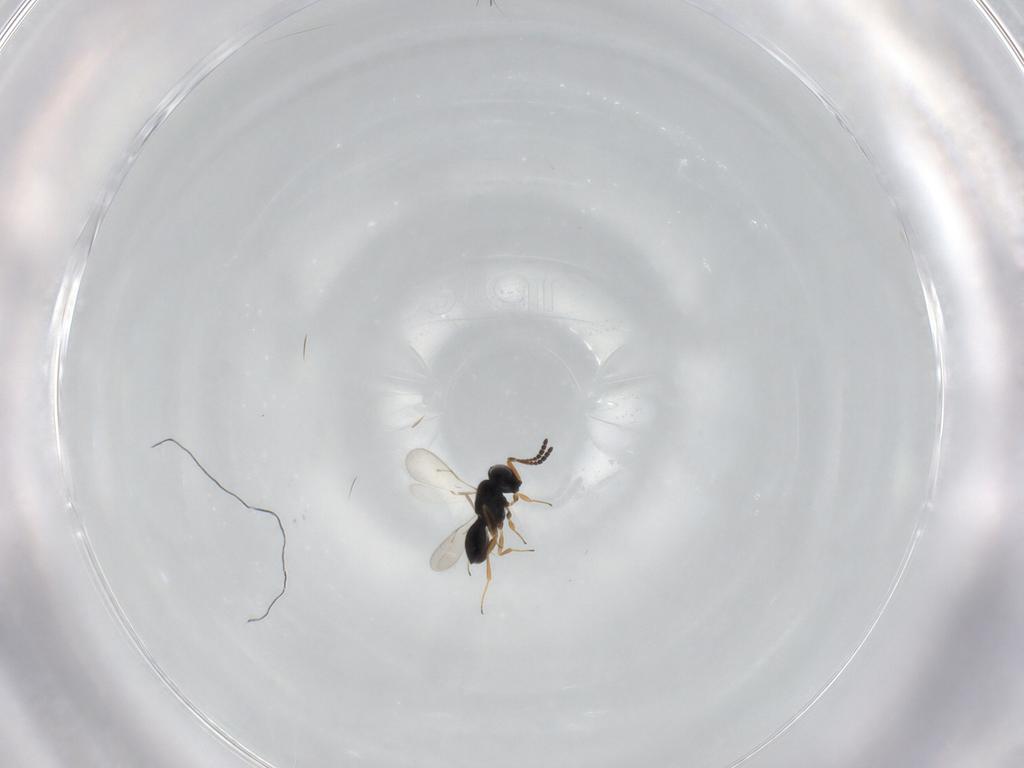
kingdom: Animalia
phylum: Arthropoda
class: Insecta
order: Hymenoptera
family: Scelionidae
